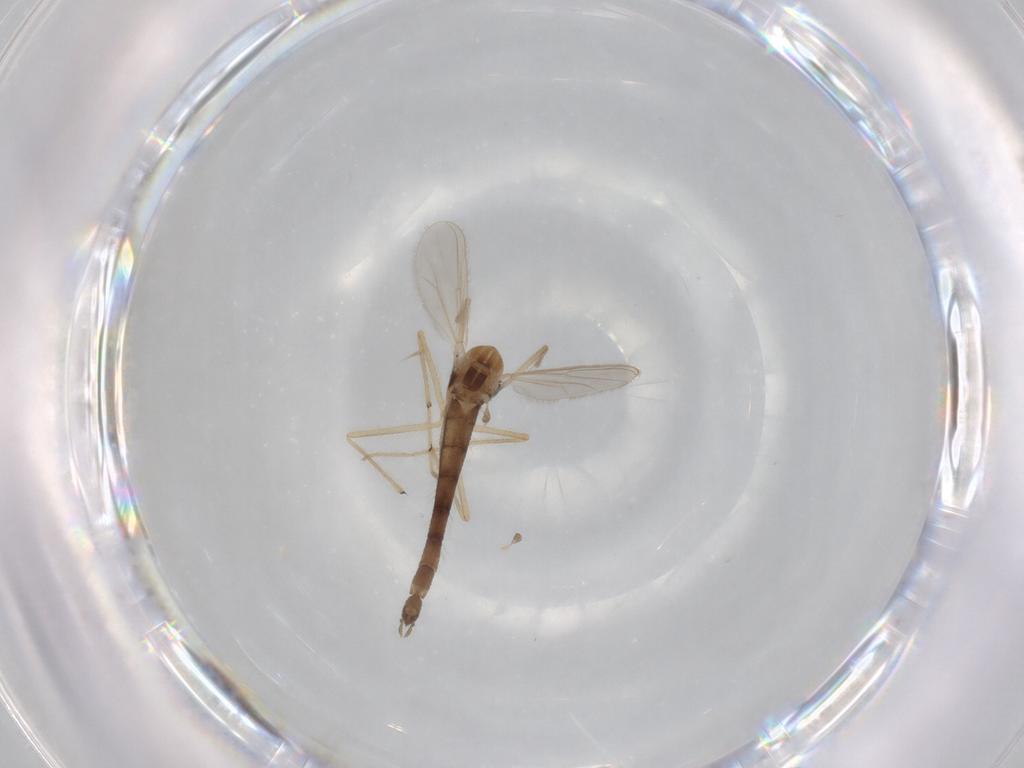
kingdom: Animalia
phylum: Arthropoda
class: Insecta
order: Diptera
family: Chironomidae
